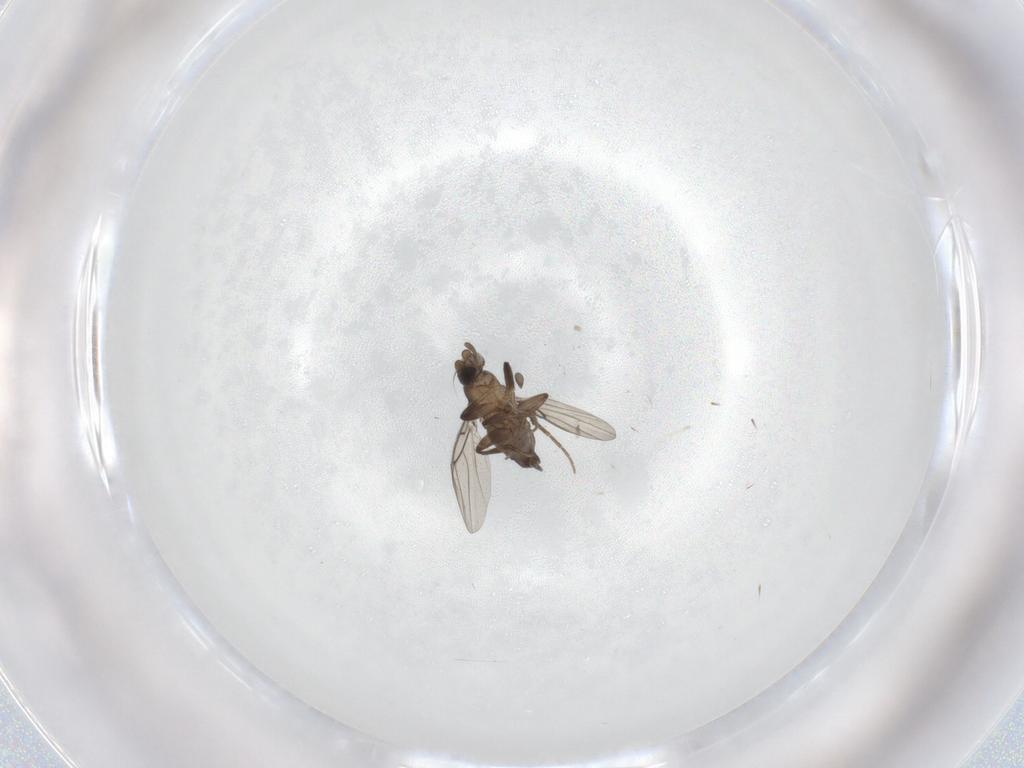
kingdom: Animalia
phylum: Arthropoda
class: Insecta
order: Diptera
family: Phoridae
